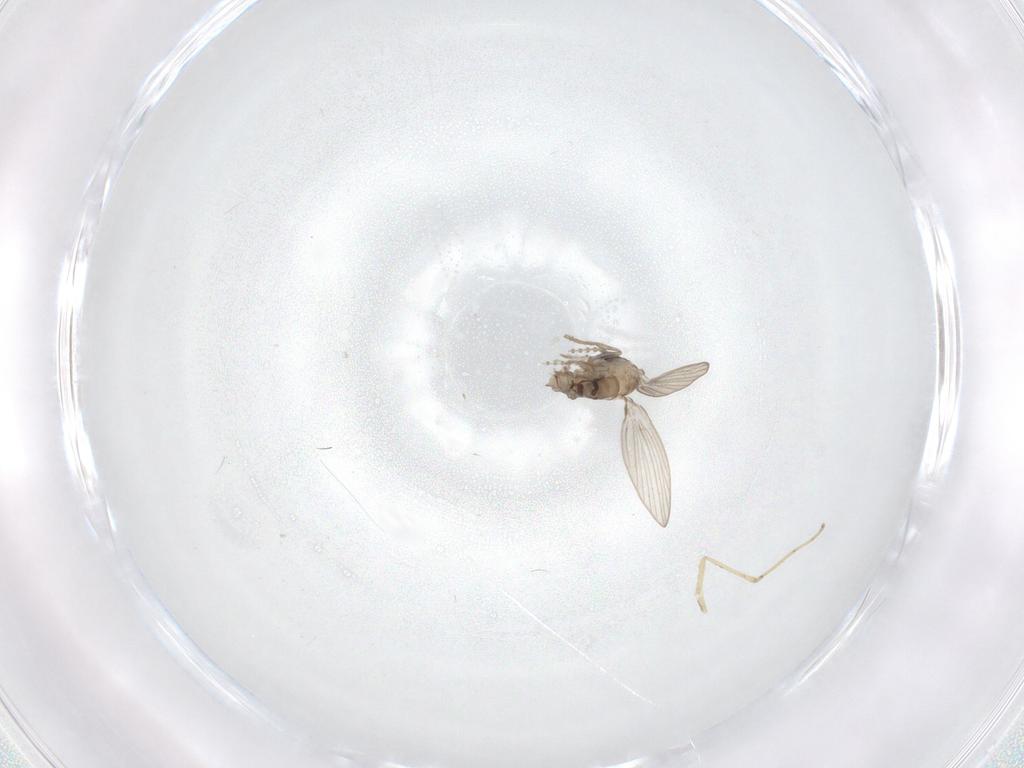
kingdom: Animalia
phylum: Arthropoda
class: Insecta
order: Diptera
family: Psychodidae
